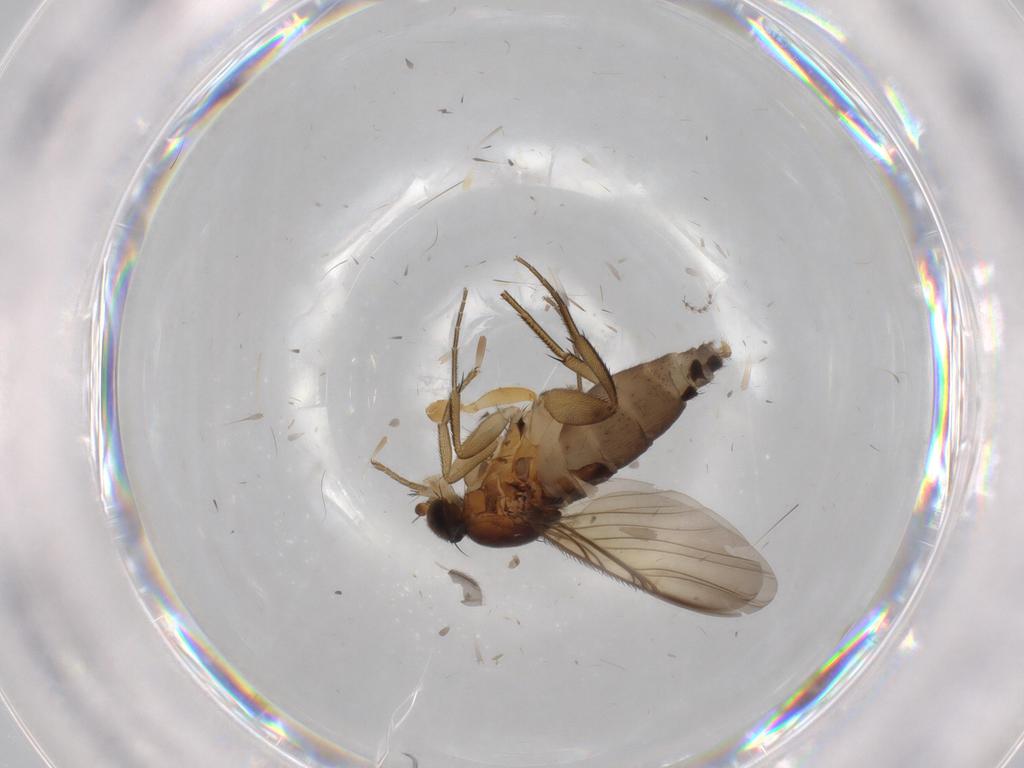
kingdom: Animalia
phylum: Arthropoda
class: Insecta
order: Diptera
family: Phoridae
